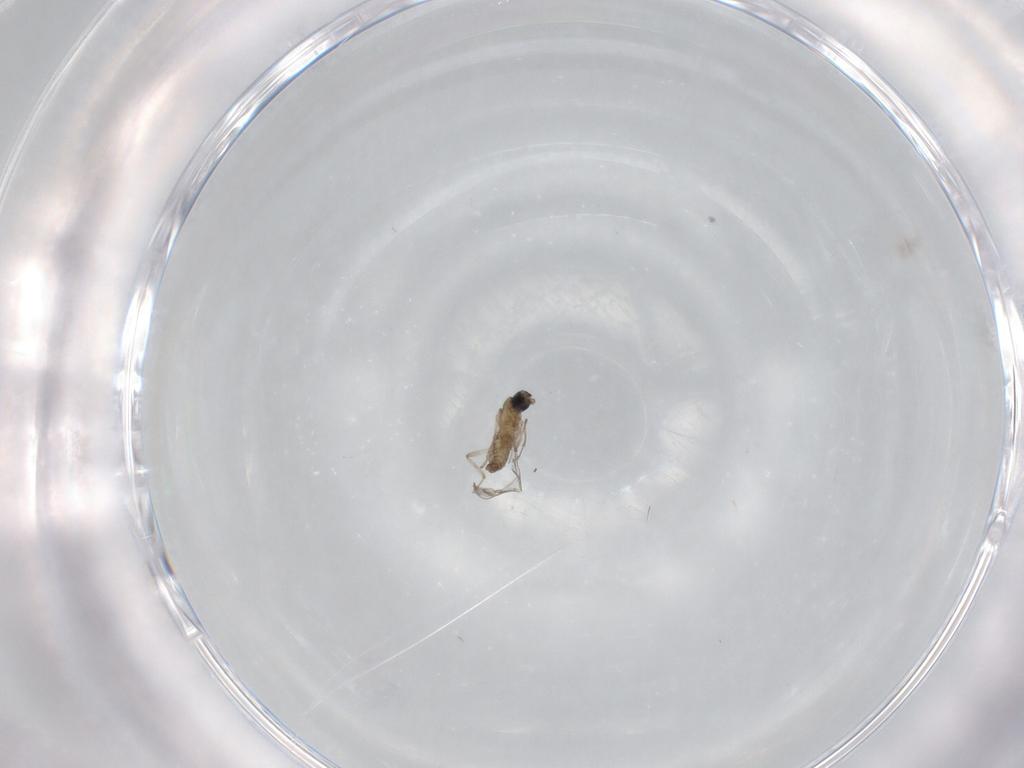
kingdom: Animalia
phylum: Arthropoda
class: Insecta
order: Diptera
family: Cecidomyiidae
